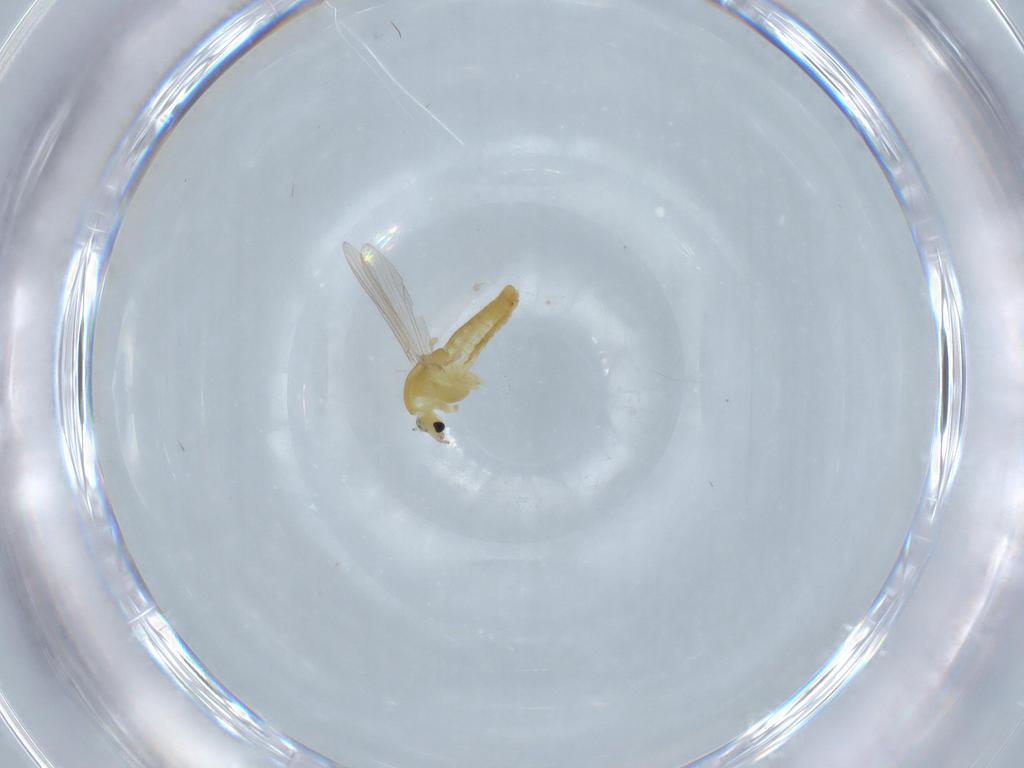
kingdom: Animalia
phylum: Arthropoda
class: Insecta
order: Diptera
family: Chironomidae
